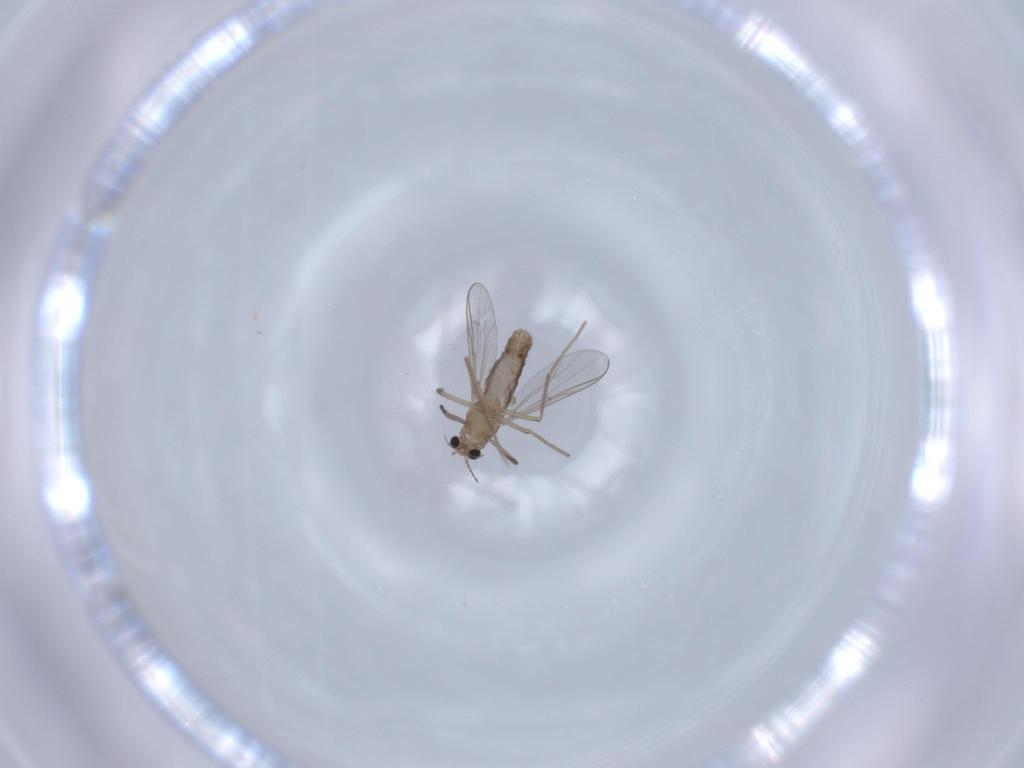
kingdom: Animalia
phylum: Arthropoda
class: Insecta
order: Diptera
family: Chironomidae
